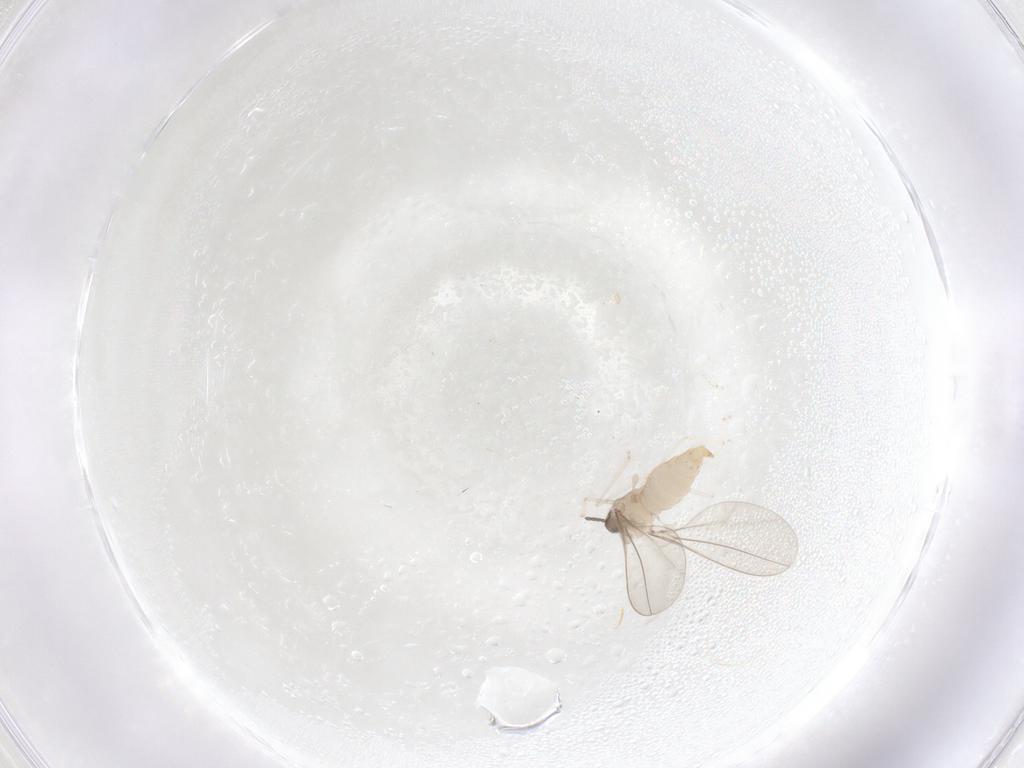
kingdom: Animalia
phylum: Arthropoda
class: Insecta
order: Diptera
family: Cecidomyiidae
